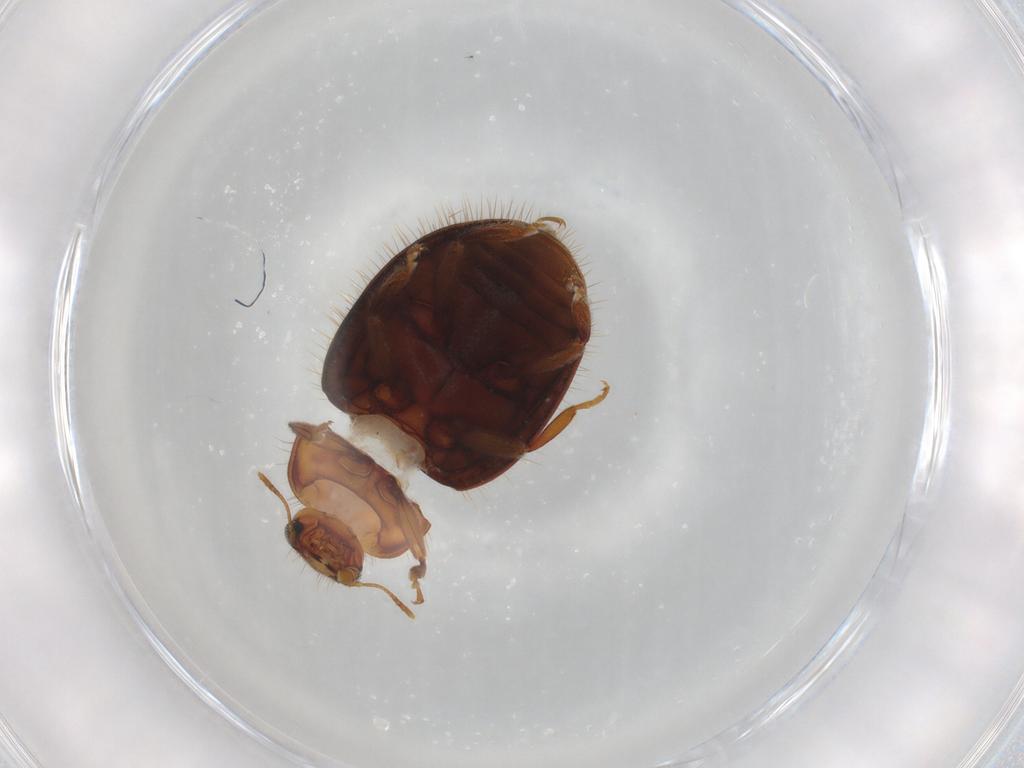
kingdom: Animalia
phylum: Arthropoda
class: Insecta
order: Coleoptera
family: Coccinellidae
